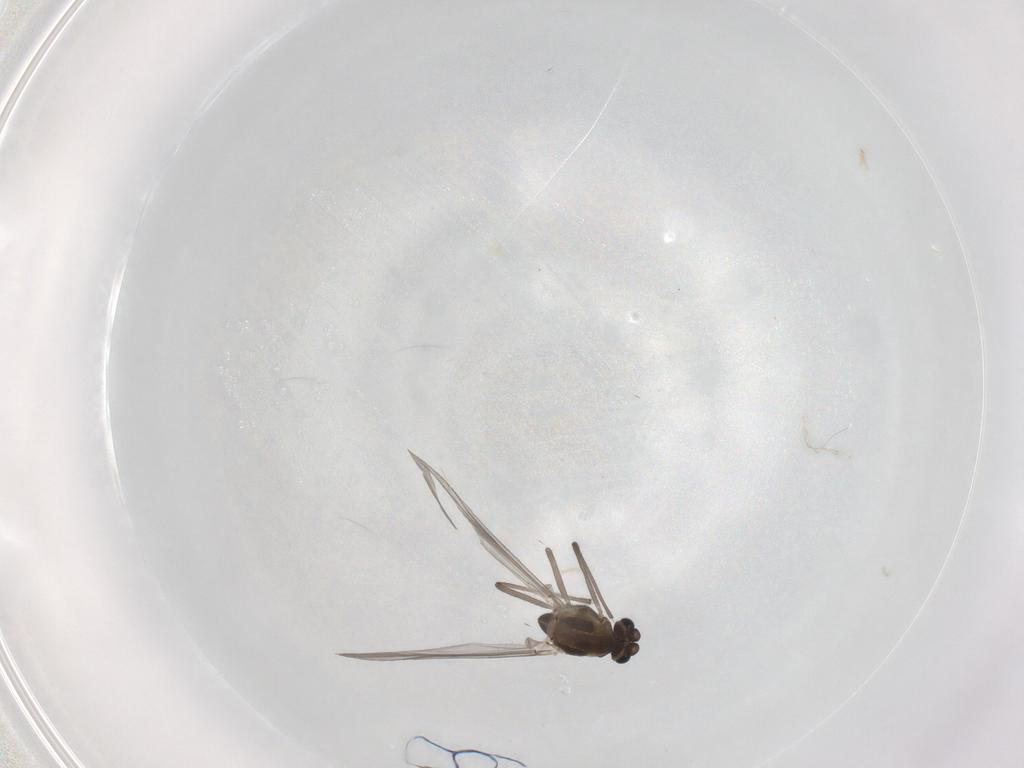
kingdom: Animalia
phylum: Arthropoda
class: Insecta
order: Diptera
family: Chironomidae
